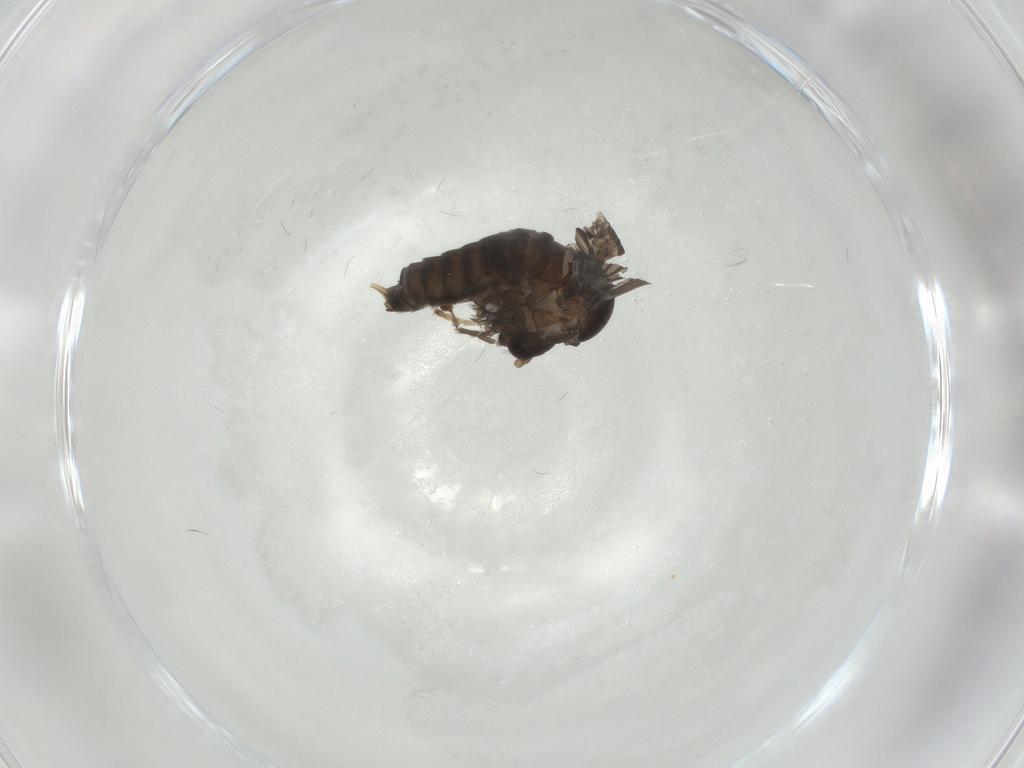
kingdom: Animalia
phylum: Arthropoda
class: Insecta
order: Diptera
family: Psychodidae
